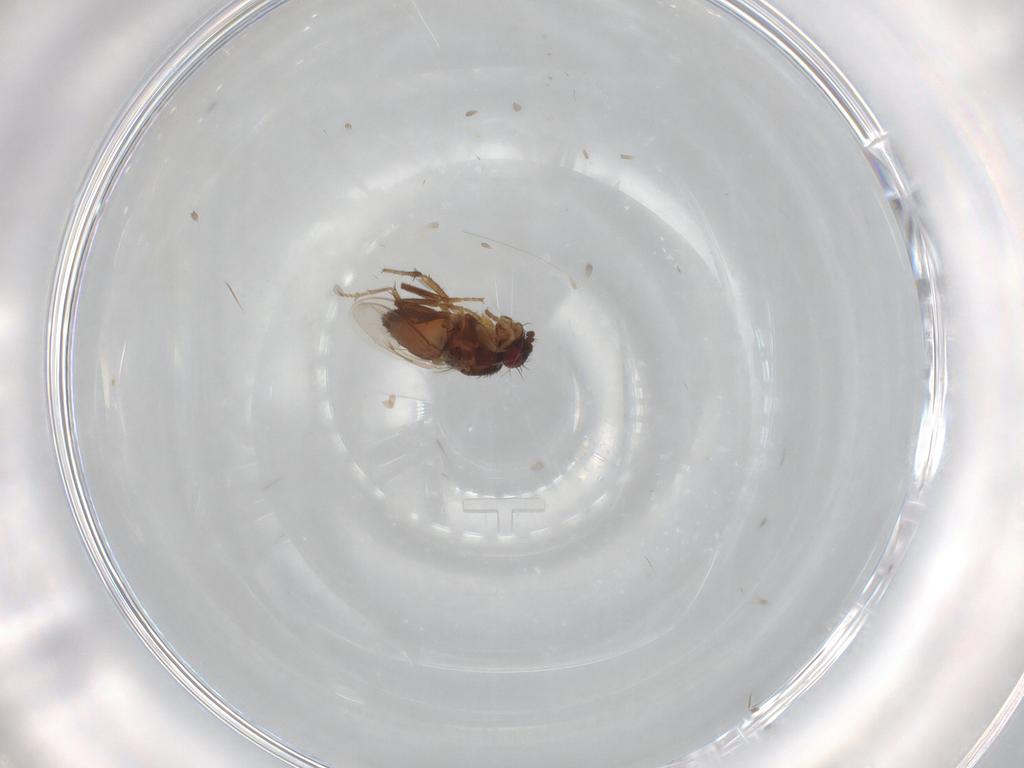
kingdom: Animalia
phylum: Arthropoda
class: Insecta
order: Diptera
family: Sphaeroceridae
